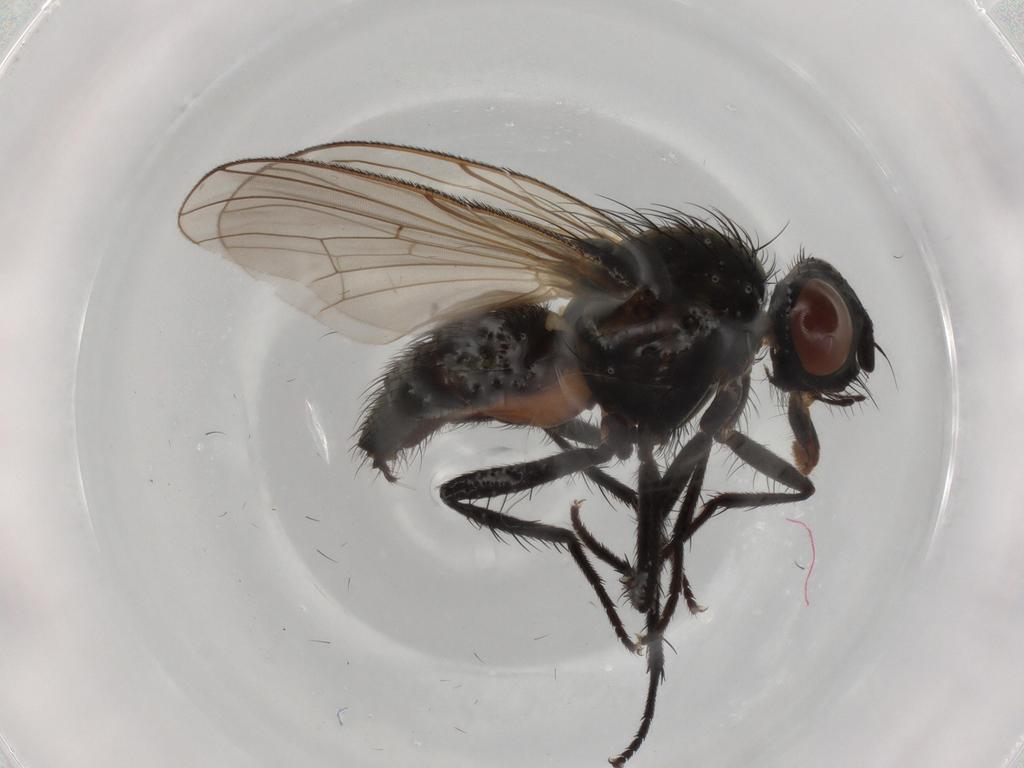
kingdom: Animalia
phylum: Arthropoda
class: Insecta
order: Diptera
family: Anthomyiidae
